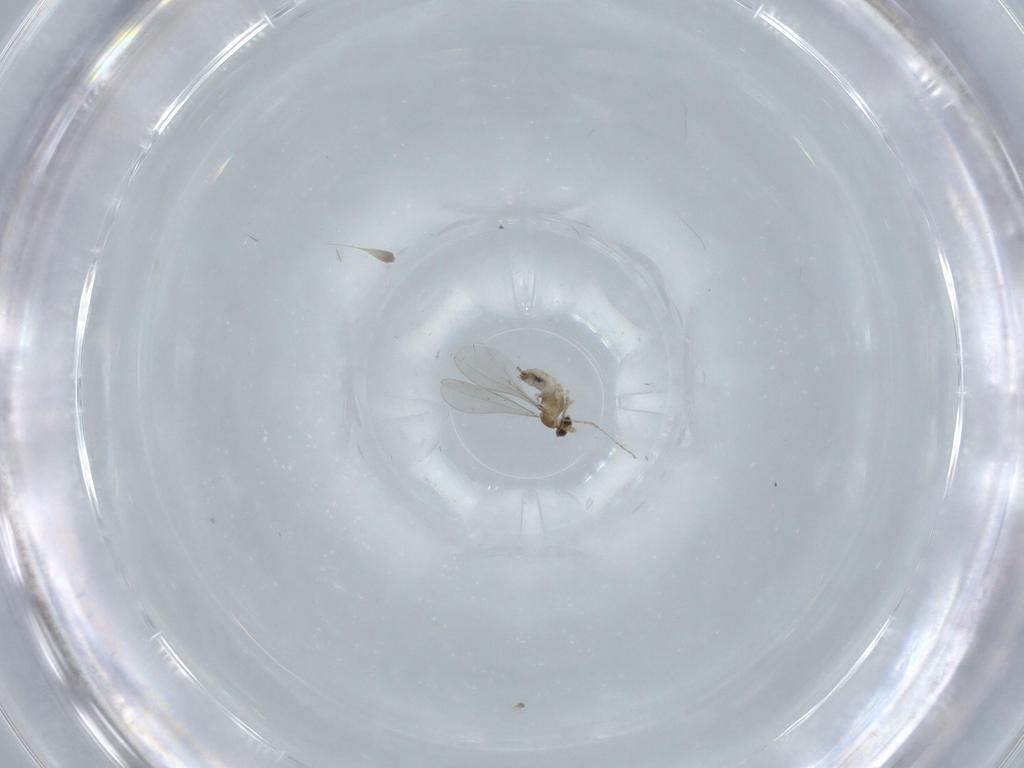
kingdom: Animalia
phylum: Arthropoda
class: Insecta
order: Diptera
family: Cecidomyiidae
